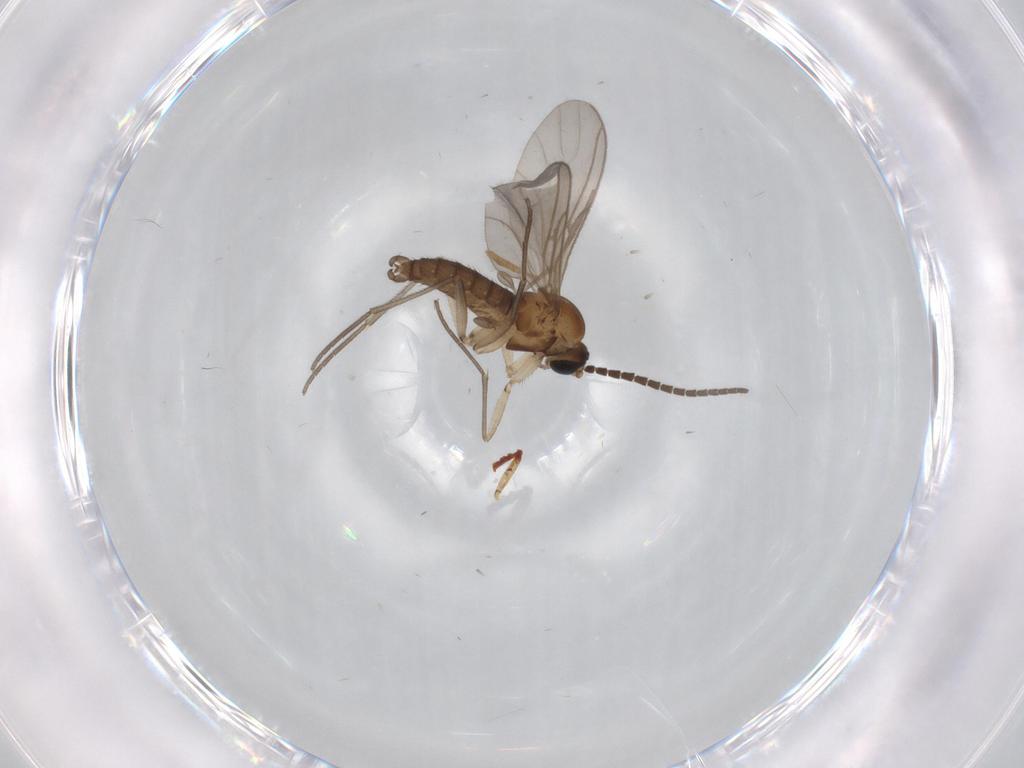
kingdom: Animalia
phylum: Arthropoda
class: Insecta
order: Diptera
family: Sciaridae
